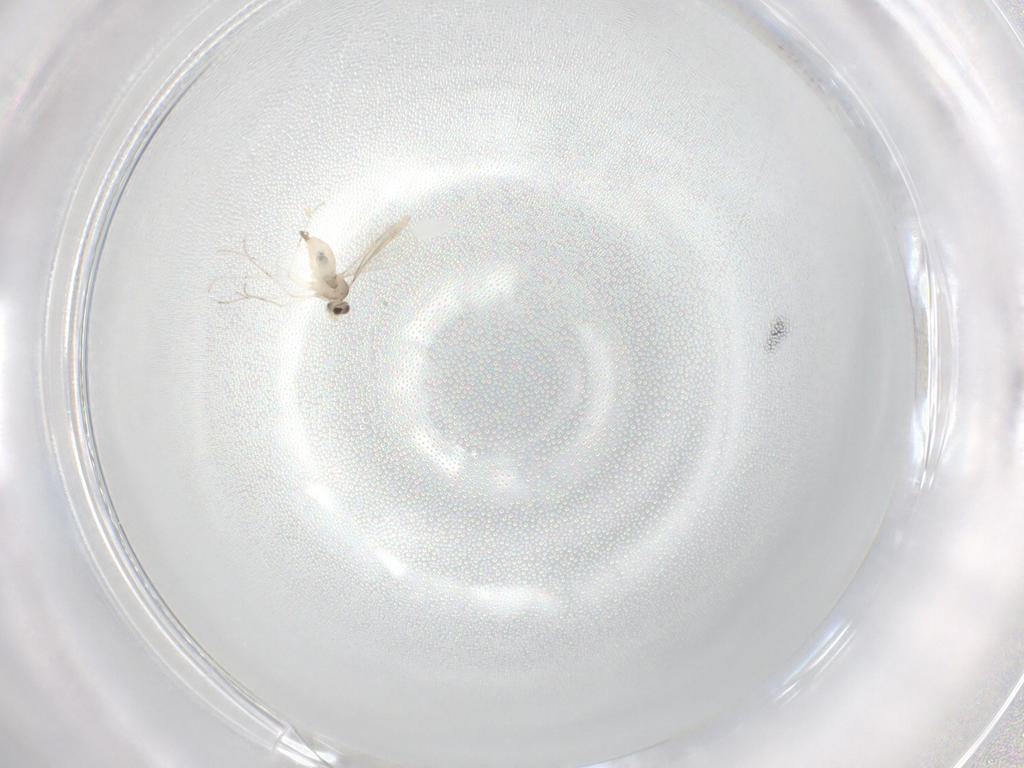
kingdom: Animalia
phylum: Arthropoda
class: Insecta
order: Diptera
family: Cecidomyiidae
